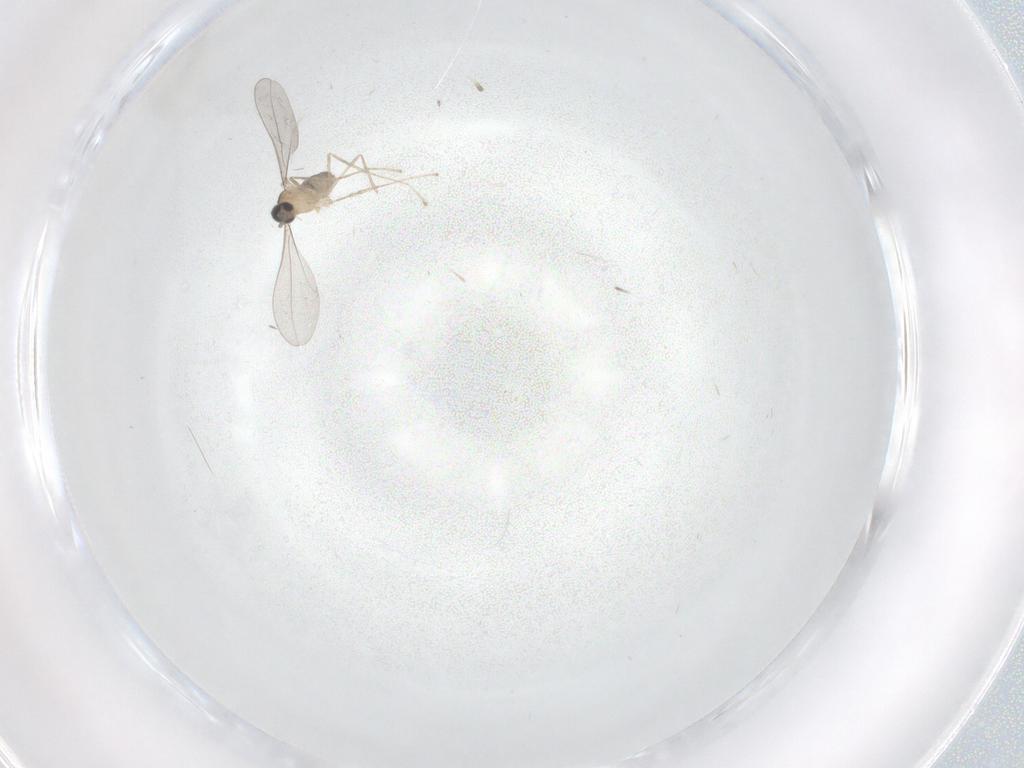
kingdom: Animalia
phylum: Arthropoda
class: Insecta
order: Diptera
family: Cecidomyiidae
